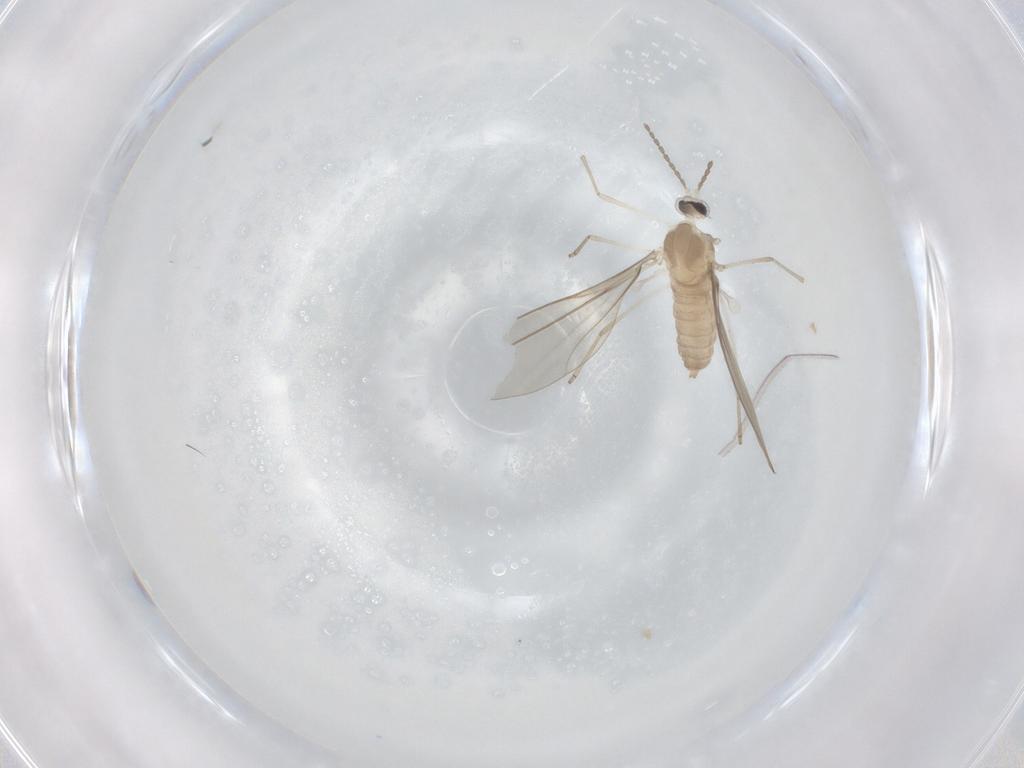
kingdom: Animalia
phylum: Arthropoda
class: Insecta
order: Diptera
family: Cecidomyiidae
